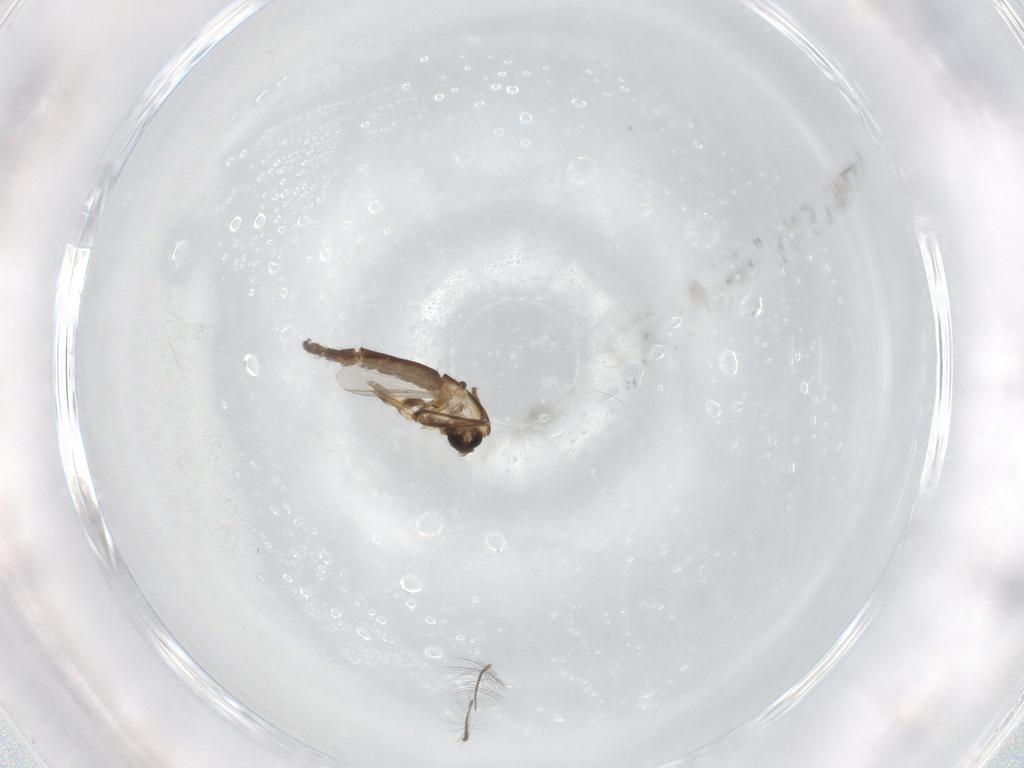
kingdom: Animalia
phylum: Arthropoda
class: Insecta
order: Diptera
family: Chironomidae
